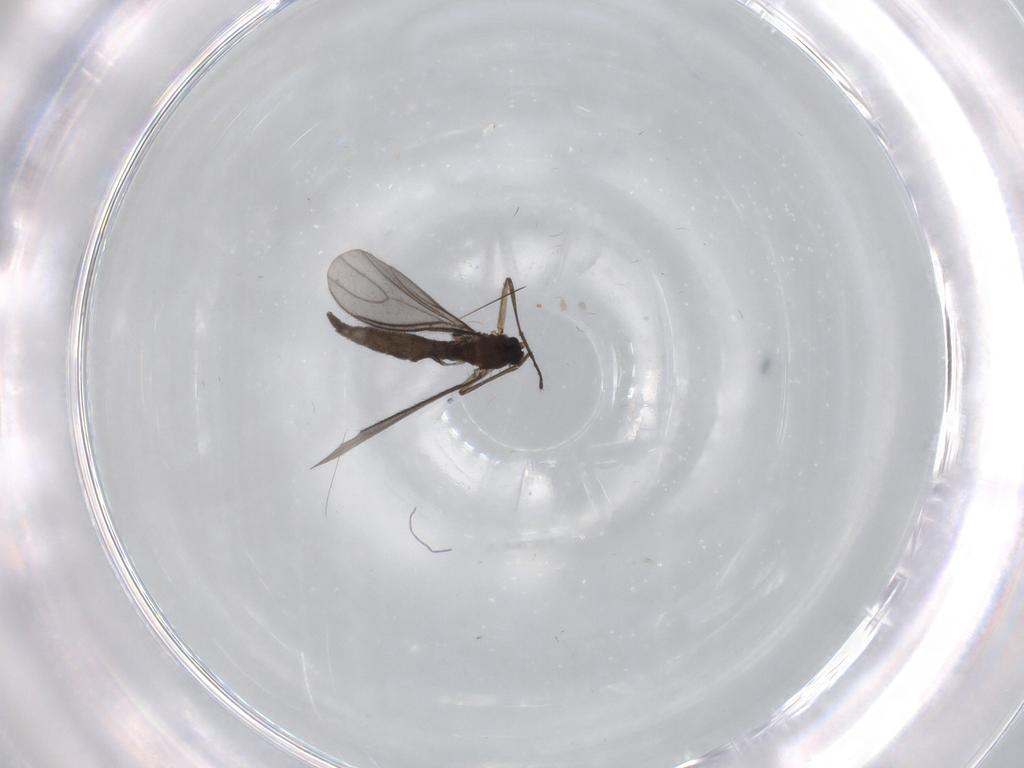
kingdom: Animalia
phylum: Arthropoda
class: Insecta
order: Diptera
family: Sciaridae
